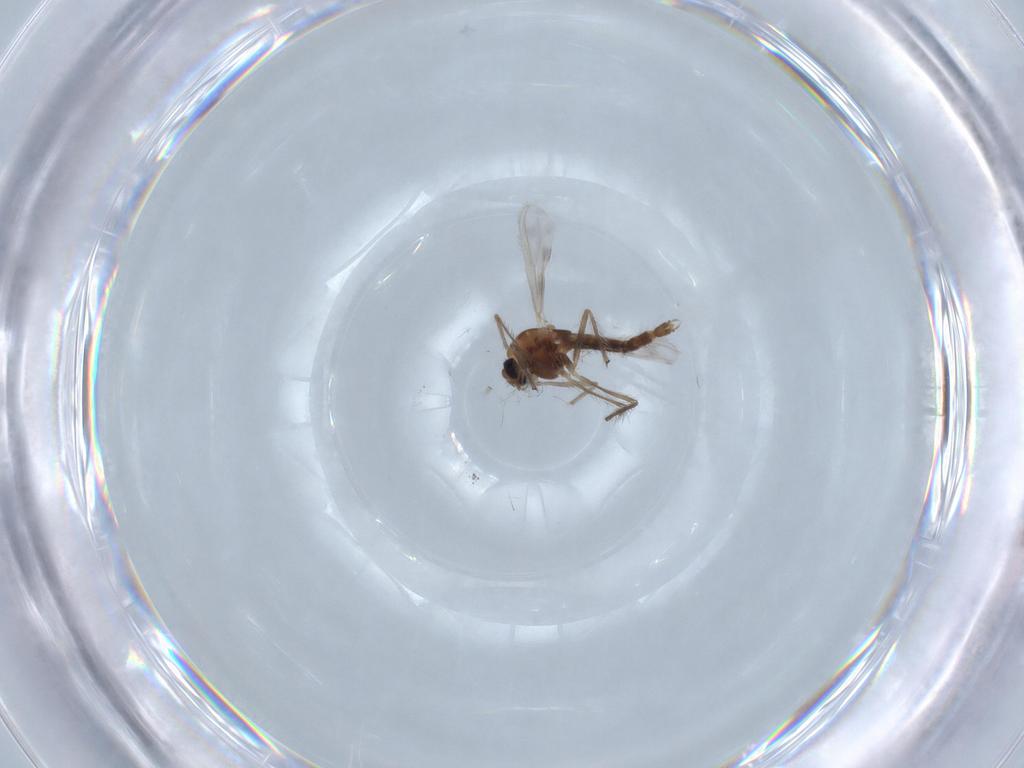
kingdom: Animalia
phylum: Arthropoda
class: Insecta
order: Diptera
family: Chironomidae
